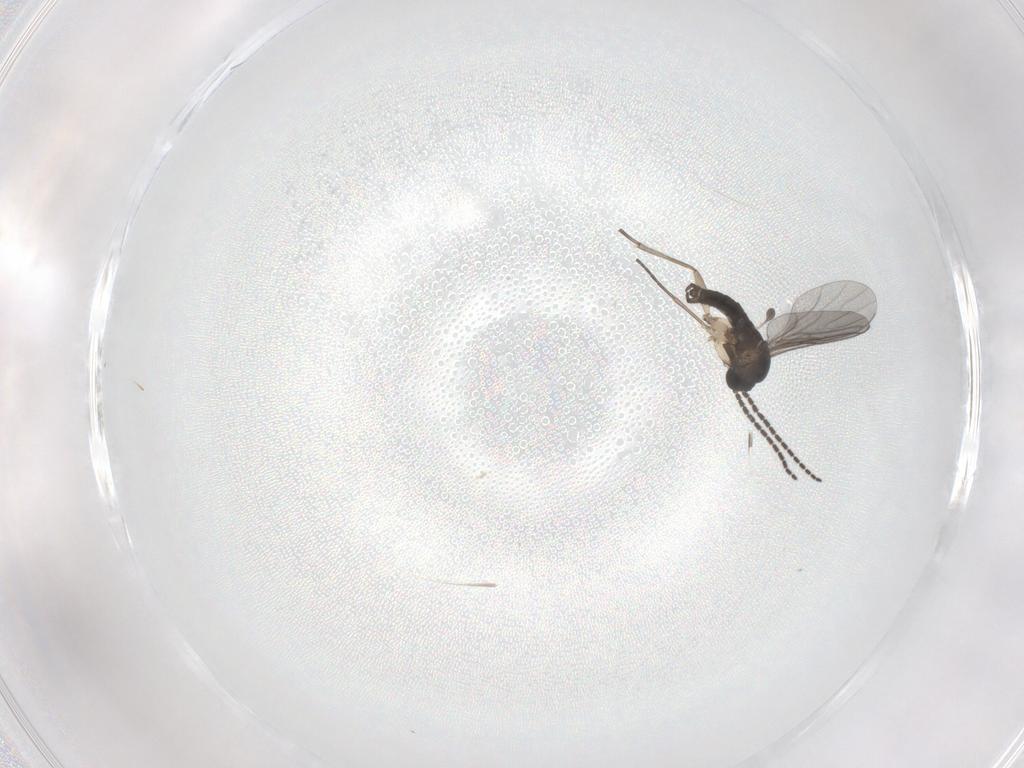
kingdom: Animalia
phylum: Arthropoda
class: Insecta
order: Diptera
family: Sciaridae
